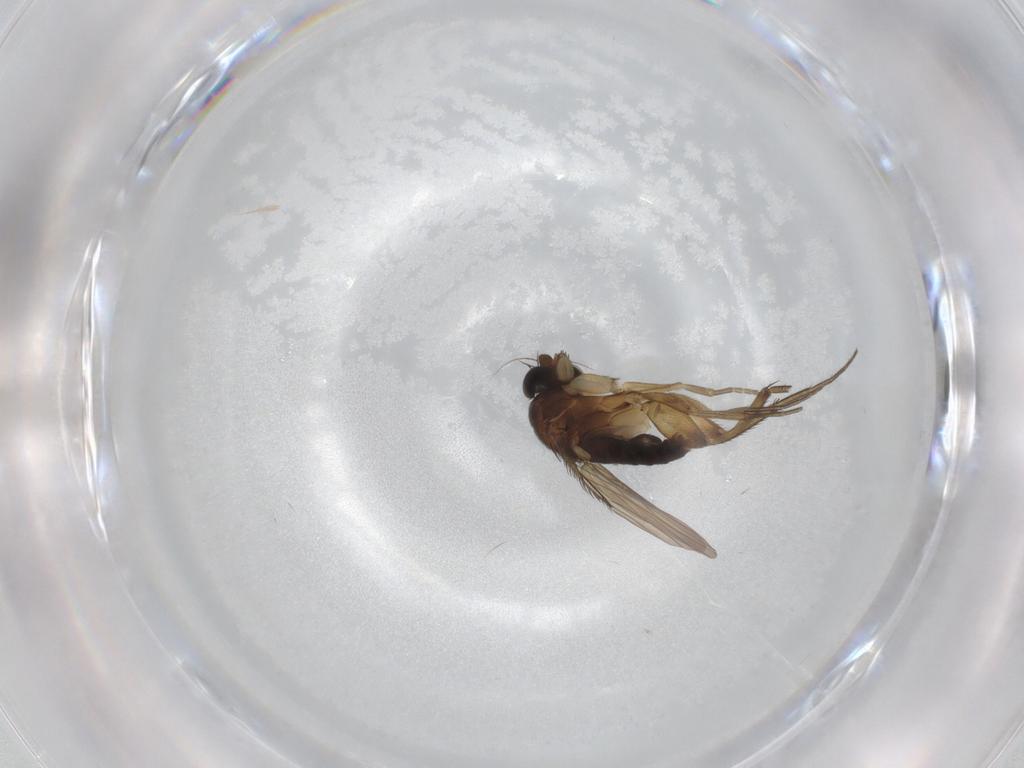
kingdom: Animalia
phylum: Arthropoda
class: Insecta
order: Diptera
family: Phoridae
